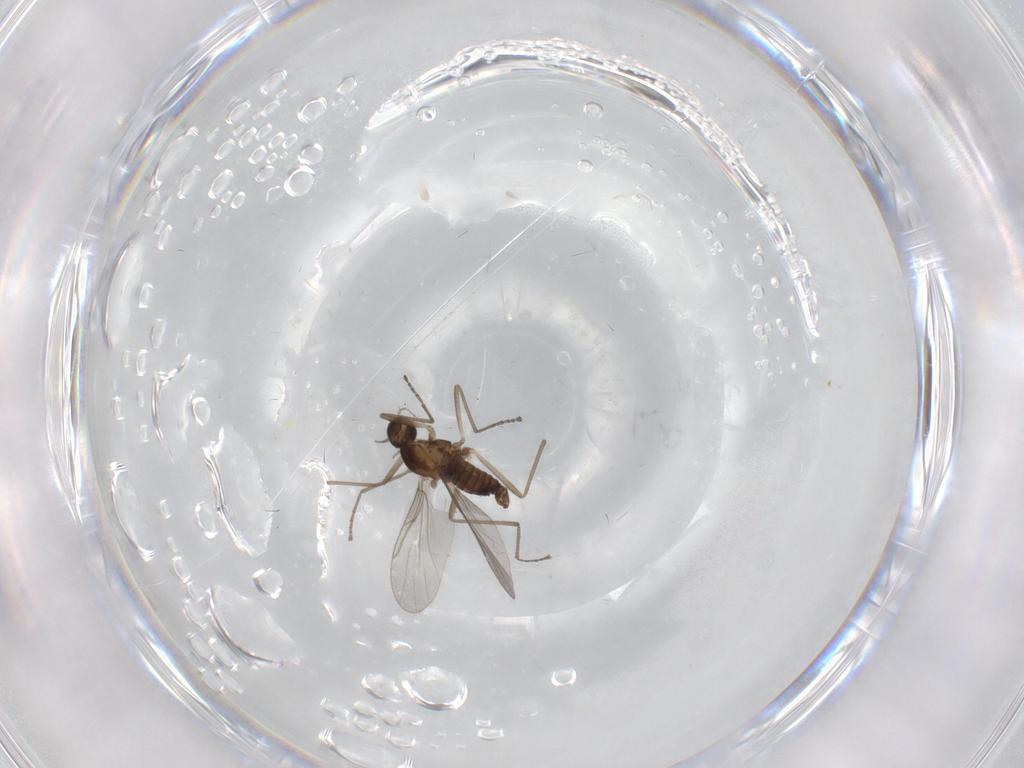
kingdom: Animalia
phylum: Arthropoda
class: Insecta
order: Diptera
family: Cecidomyiidae
